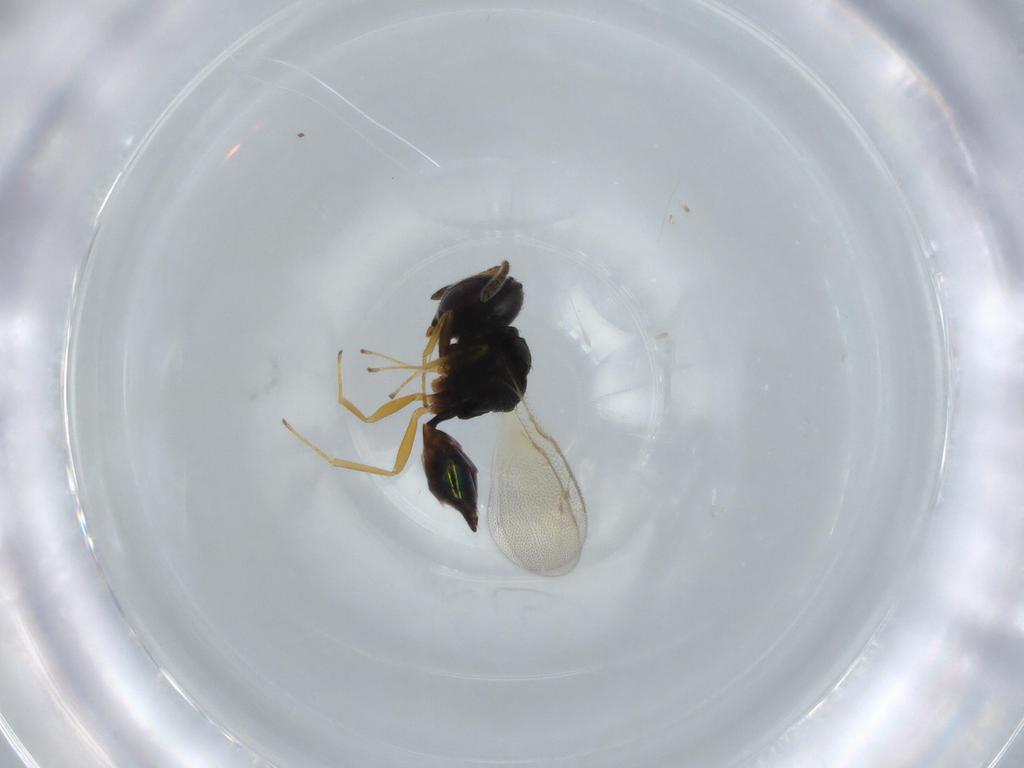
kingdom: Animalia
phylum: Arthropoda
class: Insecta
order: Hymenoptera
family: Pteromalidae
